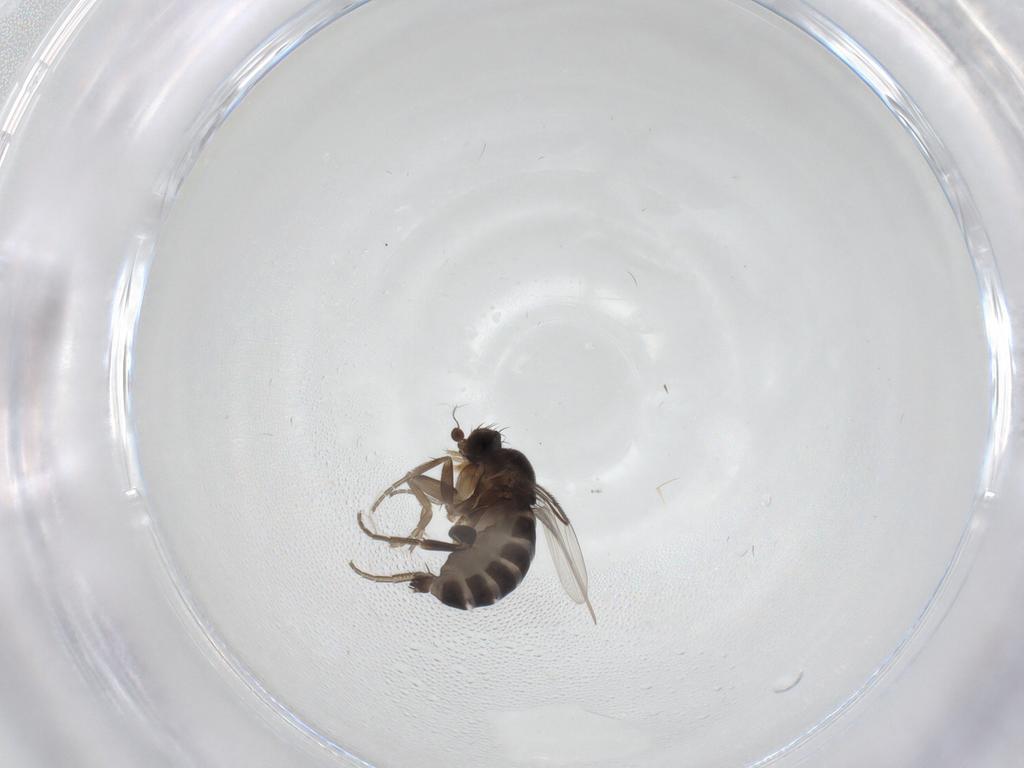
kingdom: Animalia
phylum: Arthropoda
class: Insecta
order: Diptera
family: Phoridae
